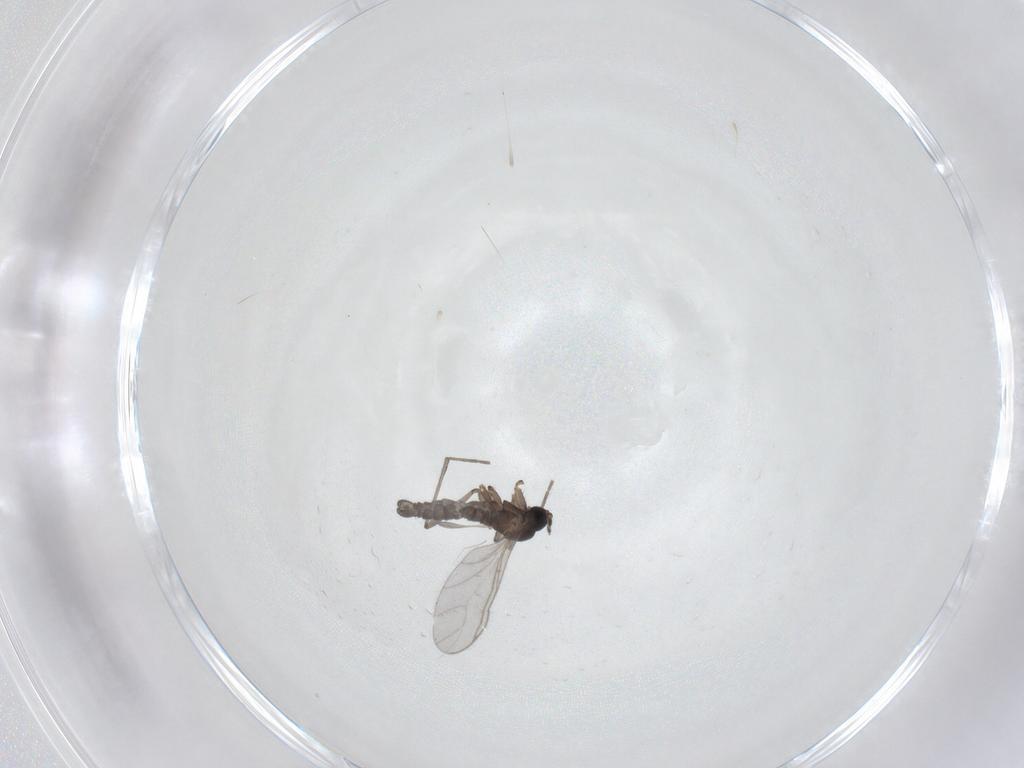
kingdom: Animalia
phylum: Arthropoda
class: Insecta
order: Diptera
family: Sciaridae
